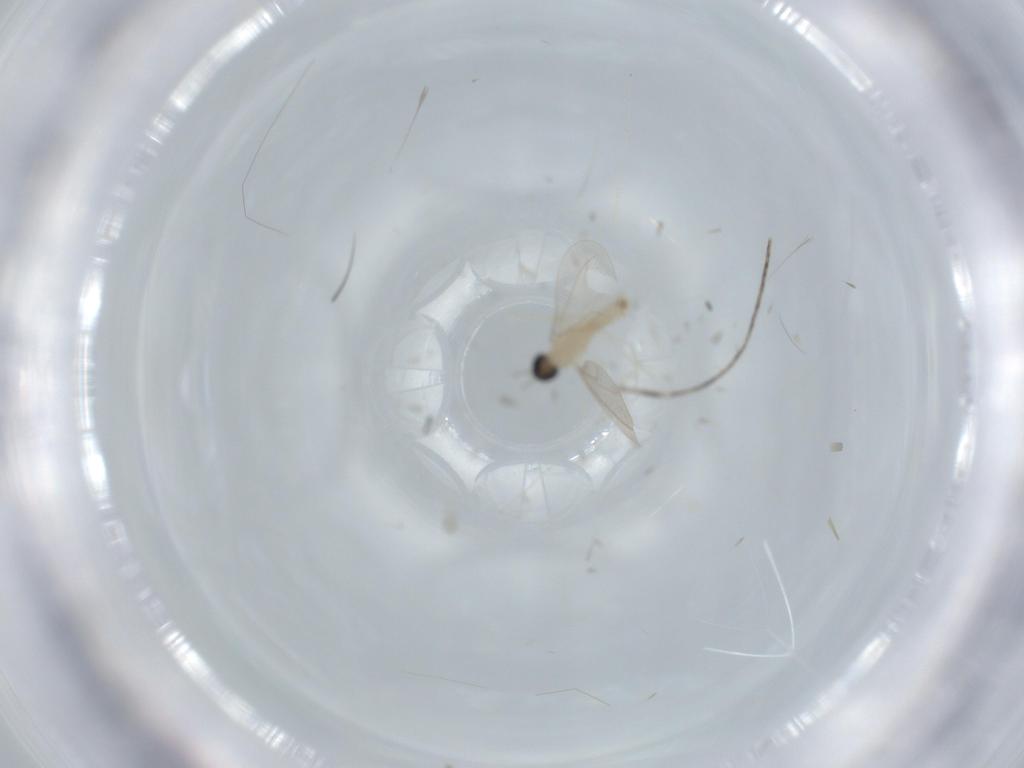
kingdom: Animalia
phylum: Arthropoda
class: Insecta
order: Diptera
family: Cecidomyiidae
